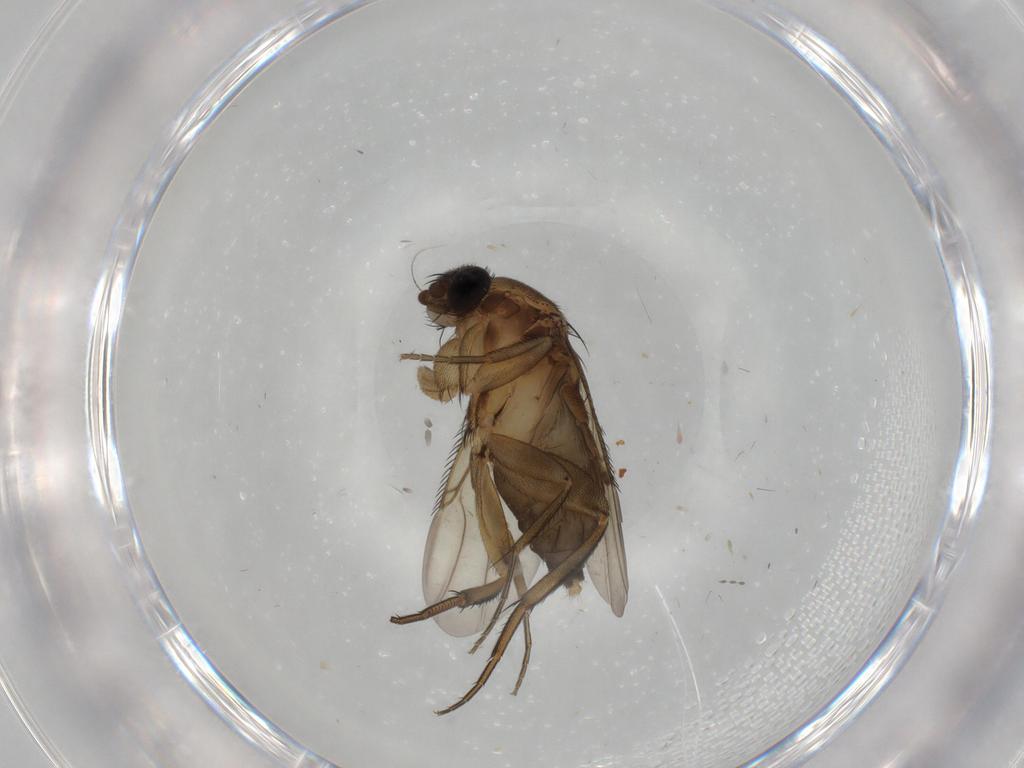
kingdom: Animalia
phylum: Arthropoda
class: Insecta
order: Diptera
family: Phoridae
